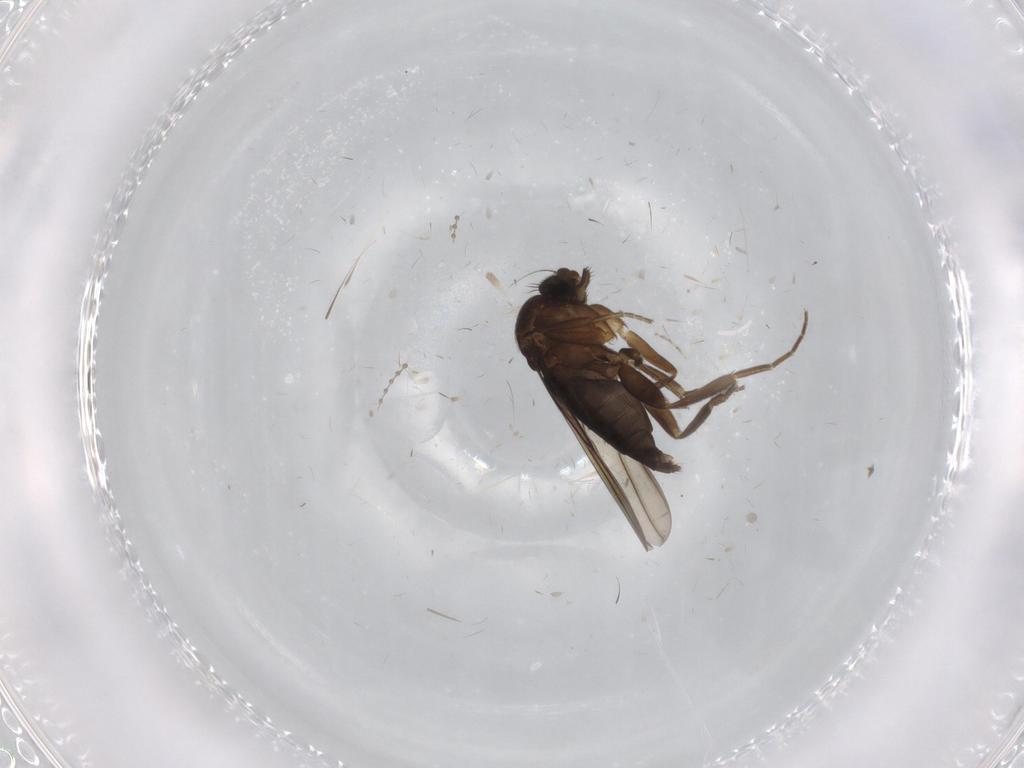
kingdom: Animalia
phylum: Arthropoda
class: Insecta
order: Diptera
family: Cecidomyiidae
